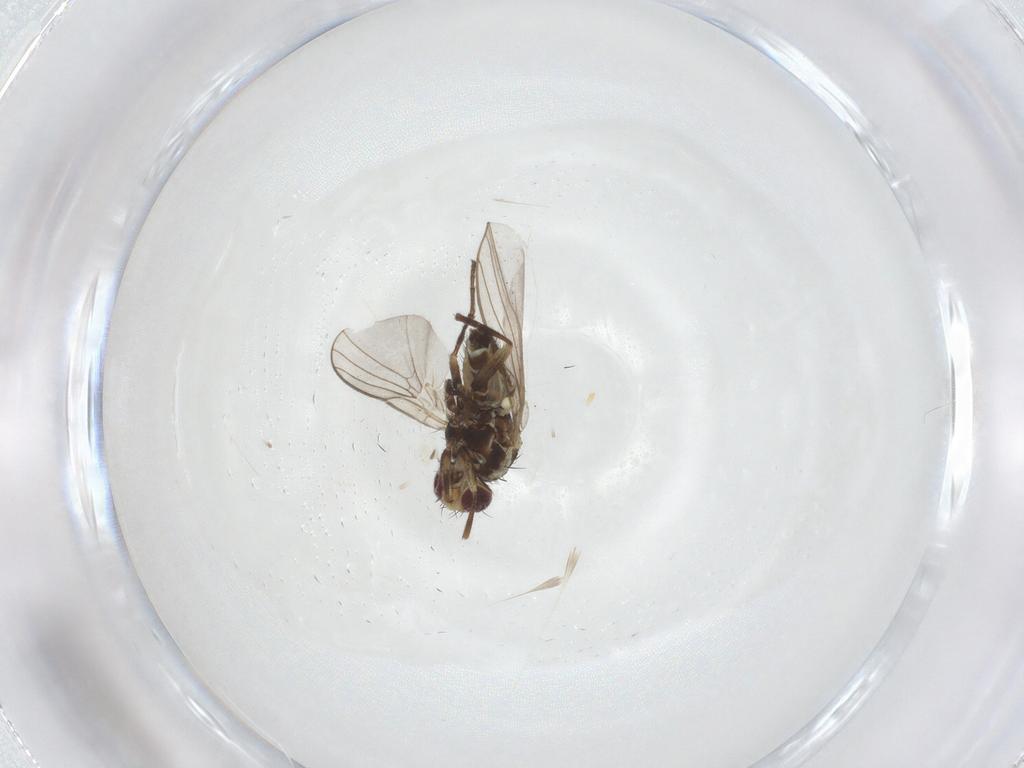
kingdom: Animalia
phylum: Arthropoda
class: Insecta
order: Diptera
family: Agromyzidae
